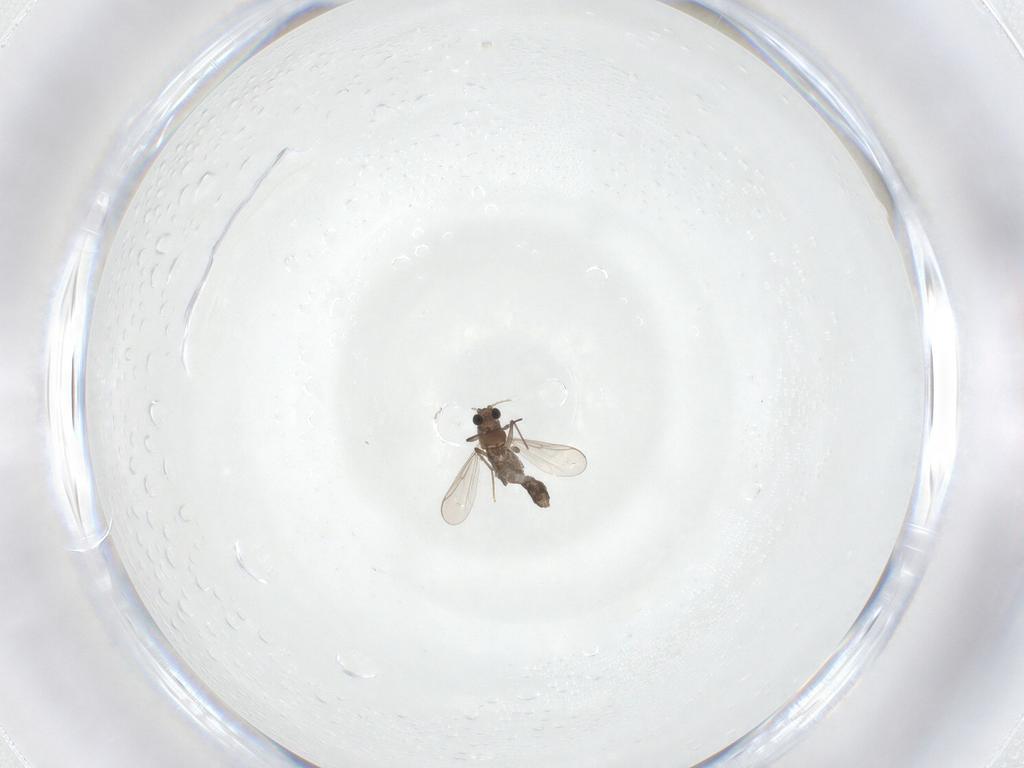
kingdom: Animalia
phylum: Arthropoda
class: Insecta
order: Diptera
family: Chironomidae
